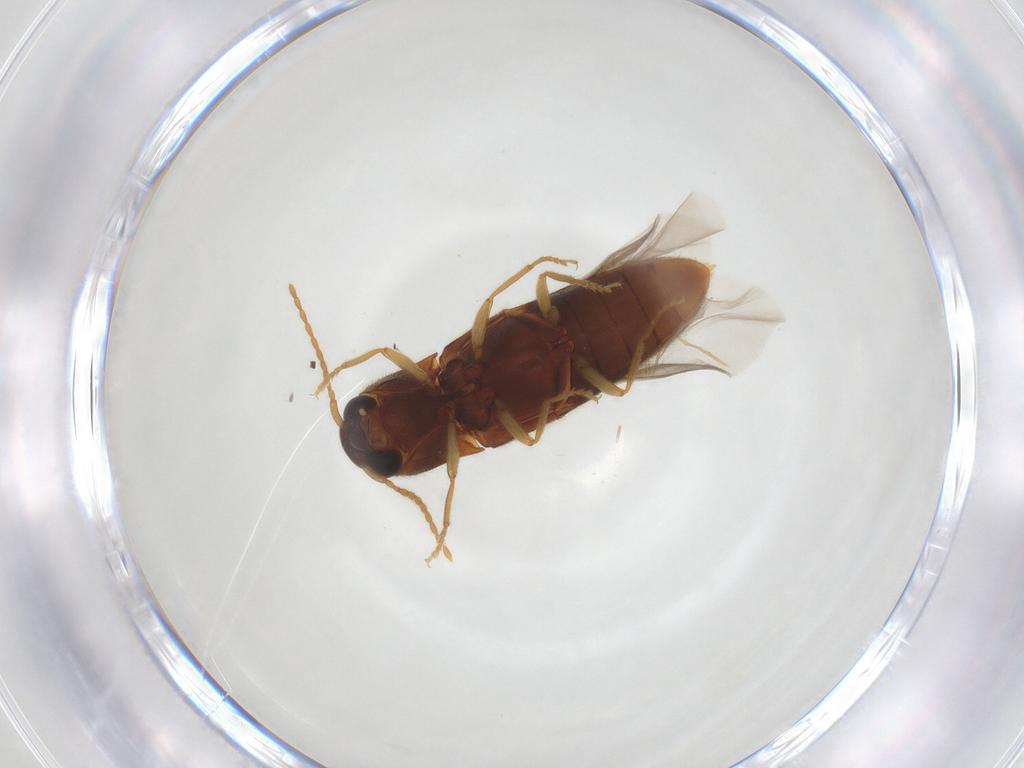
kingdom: Animalia
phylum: Arthropoda
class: Insecta
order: Coleoptera
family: Elateridae
